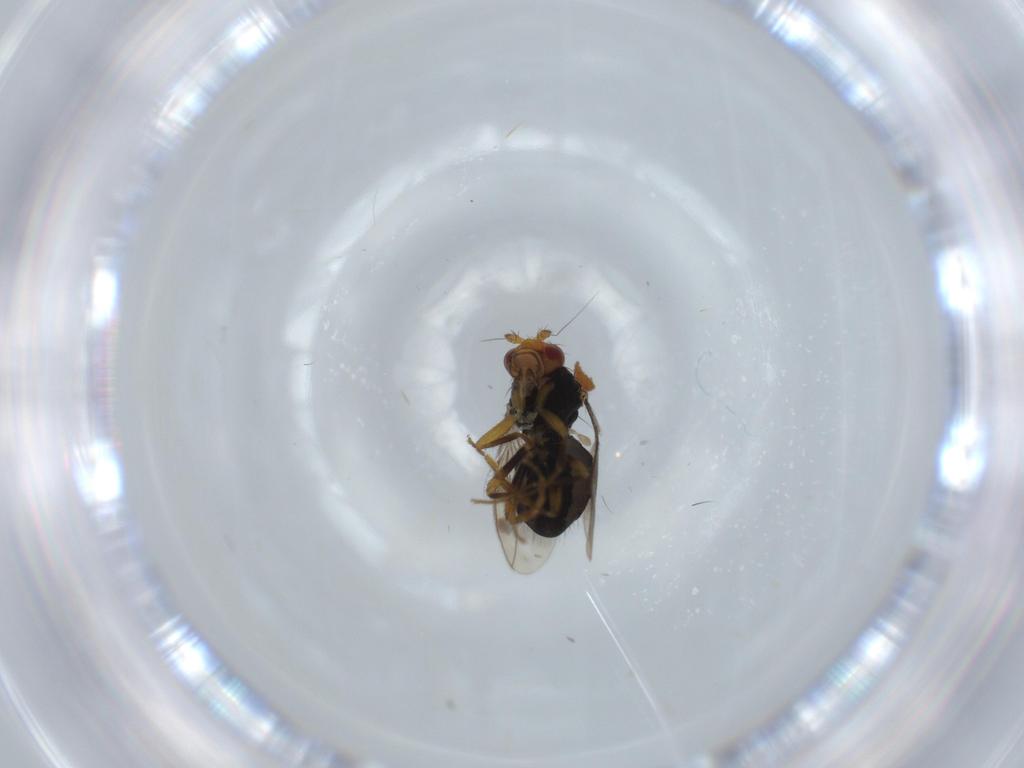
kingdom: Animalia
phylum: Arthropoda
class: Insecta
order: Diptera
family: Sphaeroceridae
